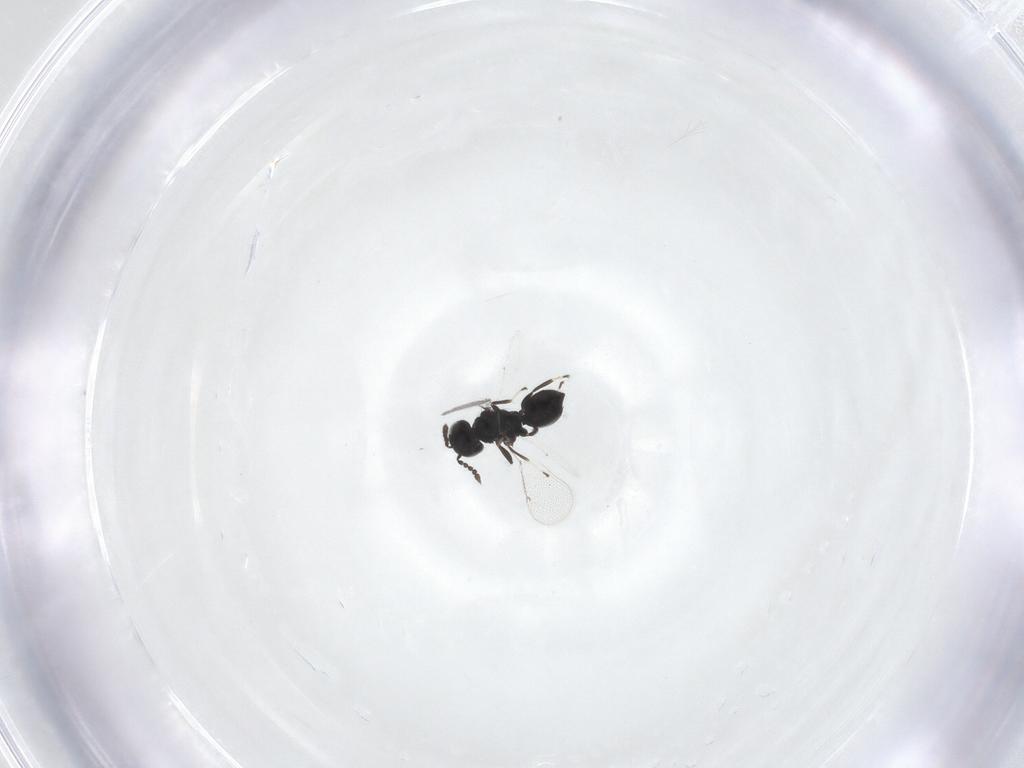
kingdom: Animalia
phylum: Arthropoda
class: Insecta
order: Hymenoptera
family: Eulophidae
